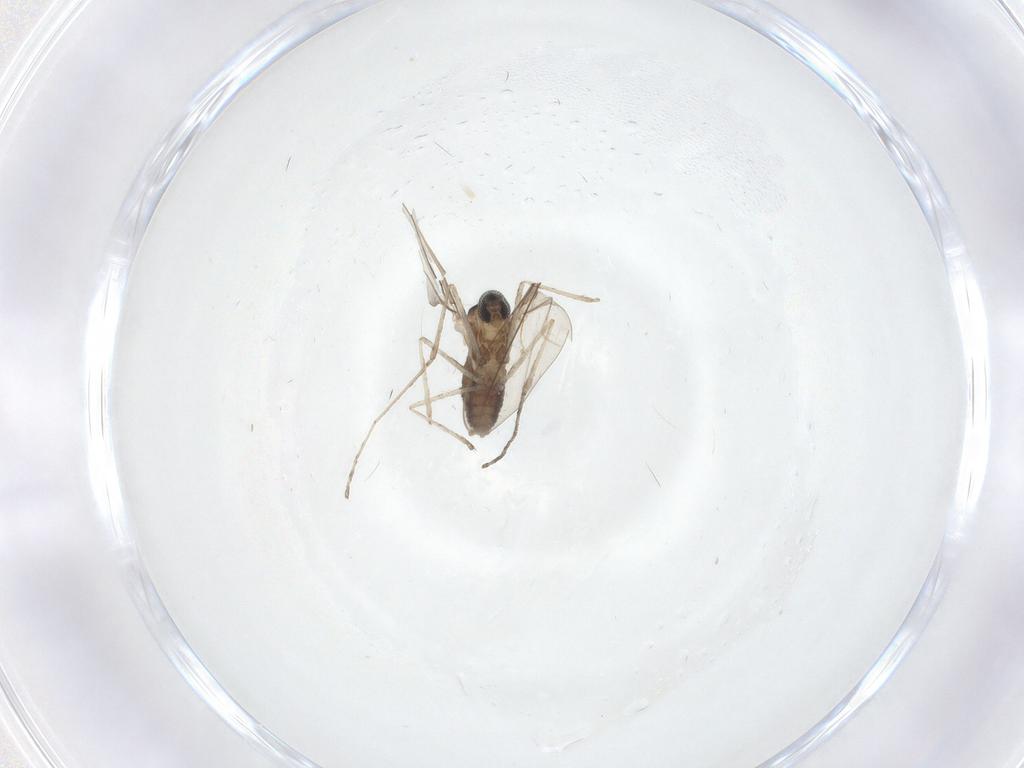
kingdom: Animalia
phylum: Arthropoda
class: Insecta
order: Diptera
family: Cecidomyiidae
